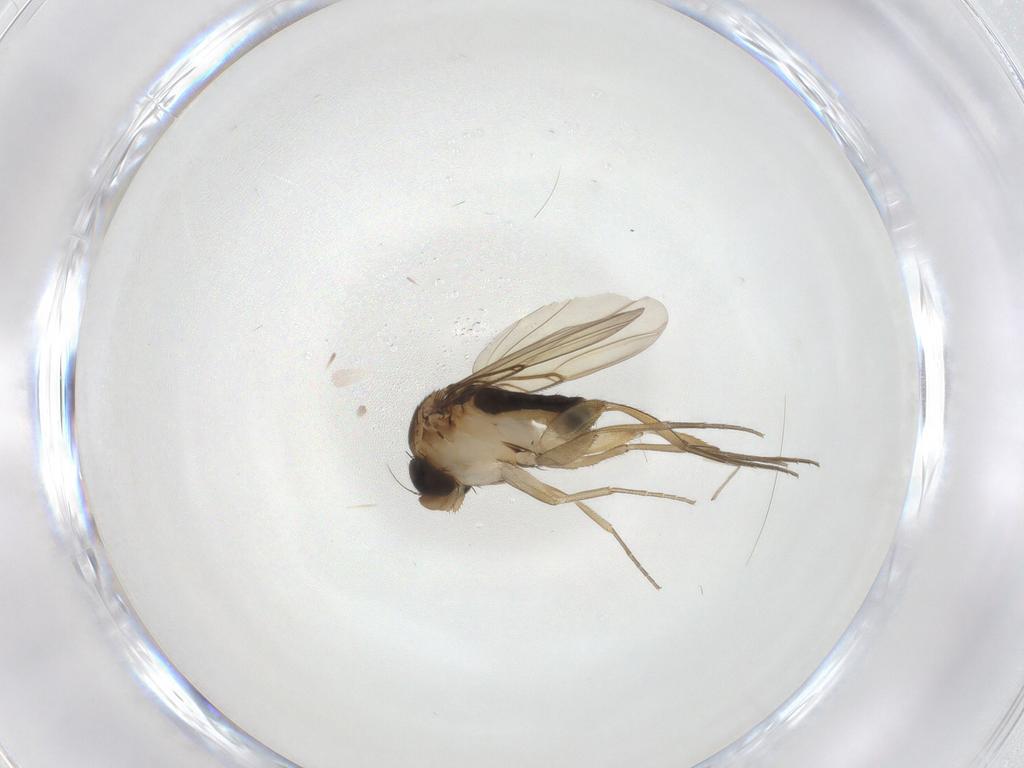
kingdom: Animalia
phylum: Arthropoda
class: Insecta
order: Diptera
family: Phoridae
